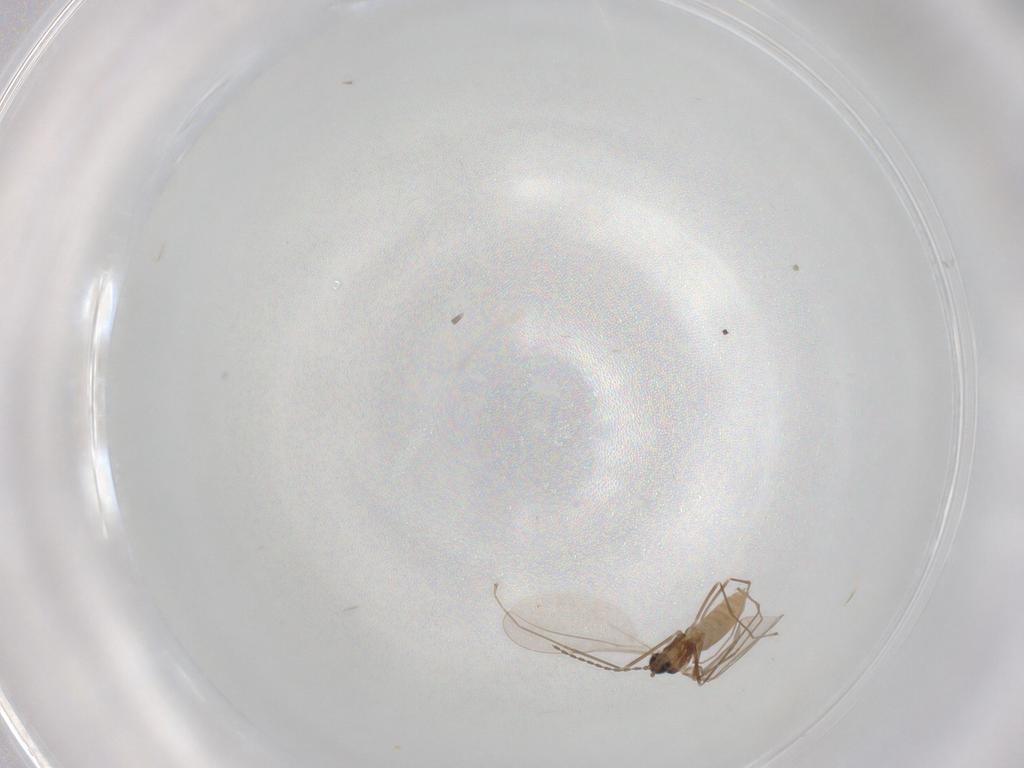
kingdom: Animalia
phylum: Arthropoda
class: Insecta
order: Diptera
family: Cecidomyiidae
